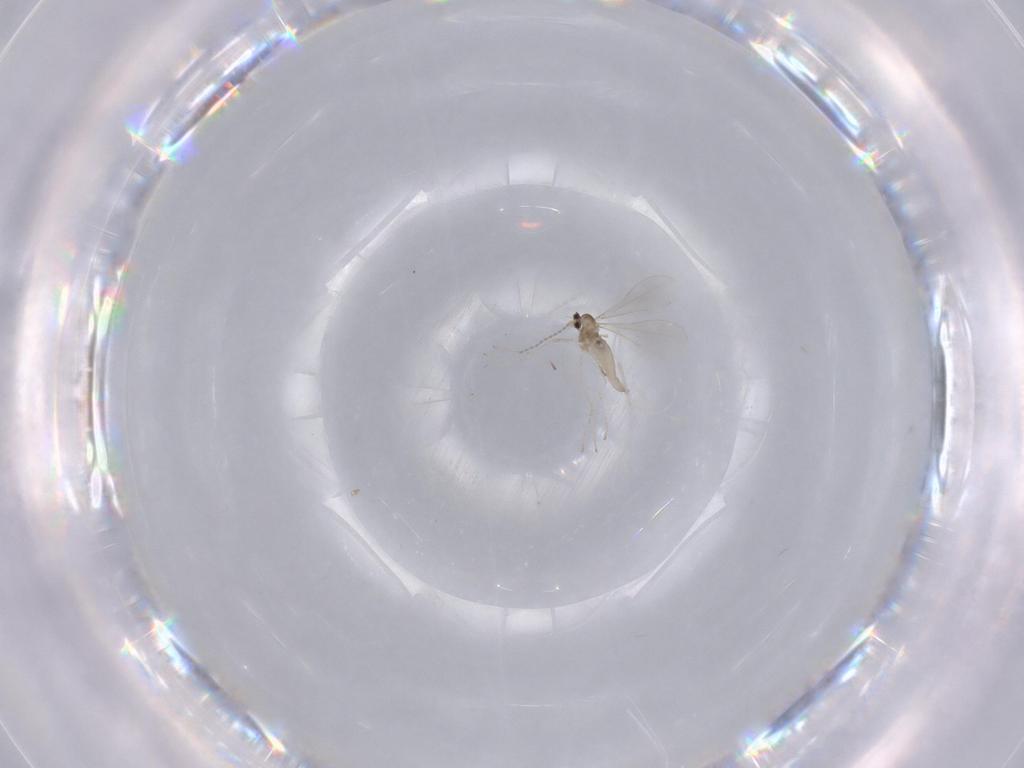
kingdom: Animalia
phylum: Arthropoda
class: Insecta
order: Diptera
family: Cecidomyiidae
